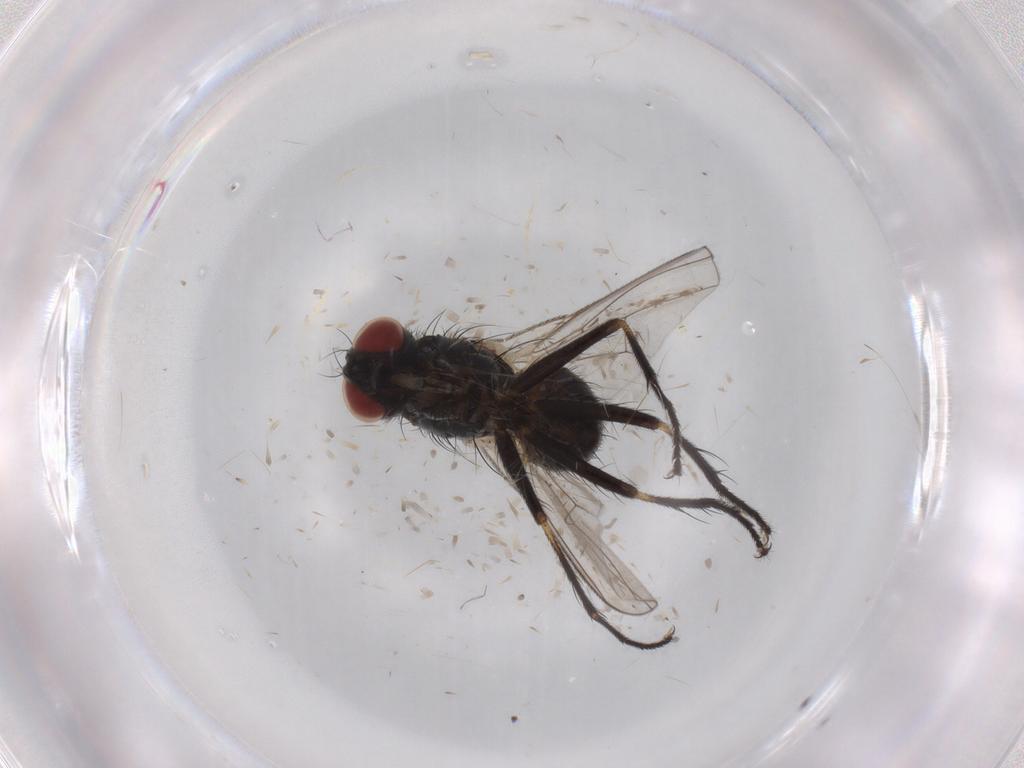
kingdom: Animalia
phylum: Arthropoda
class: Insecta
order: Diptera
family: Muscidae
